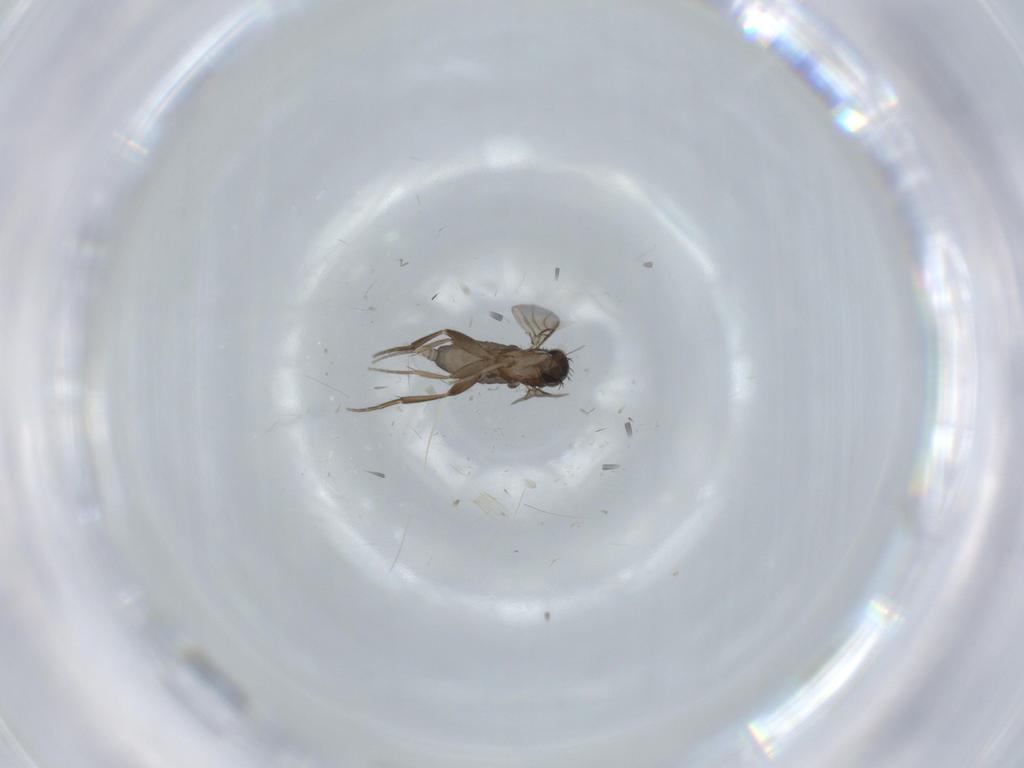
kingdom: Animalia
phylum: Arthropoda
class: Insecta
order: Diptera
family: Phoridae
